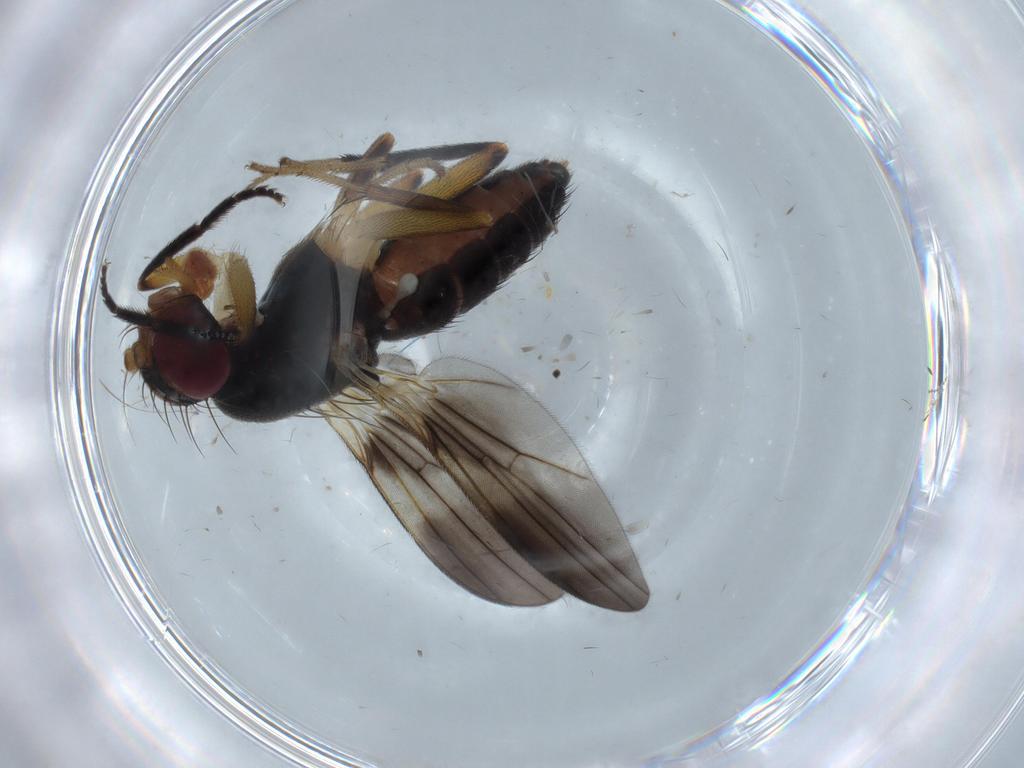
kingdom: Animalia
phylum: Arthropoda
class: Insecta
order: Diptera
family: Clusiidae
